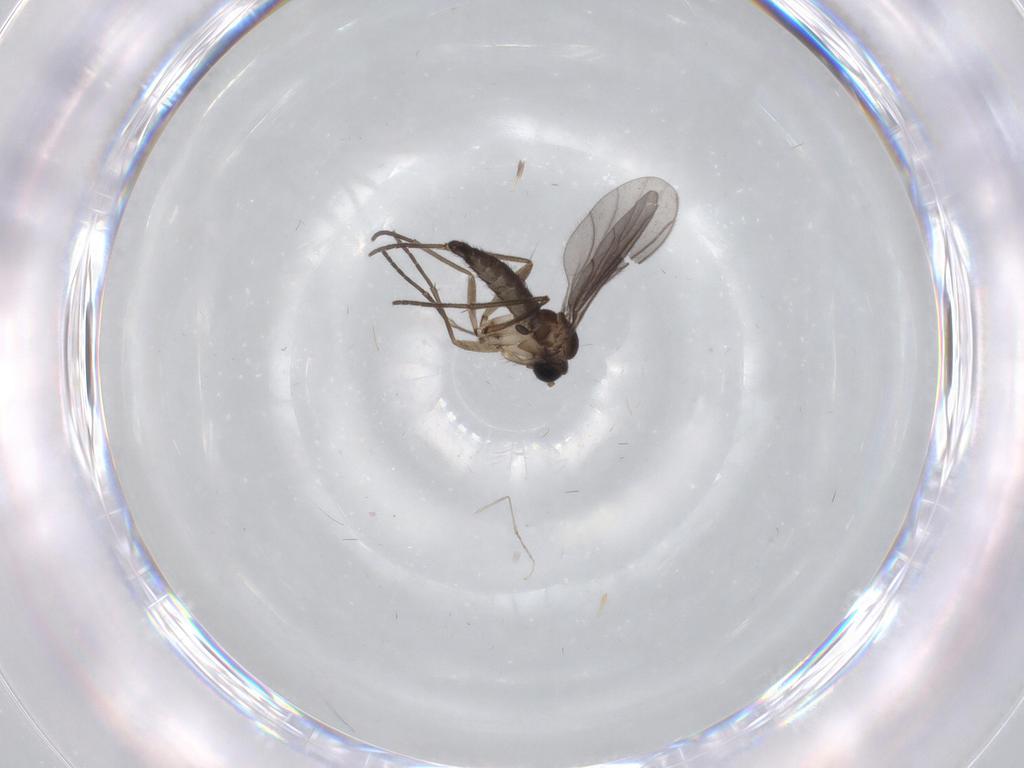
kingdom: Animalia
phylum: Arthropoda
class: Insecta
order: Diptera
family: Sciaridae
